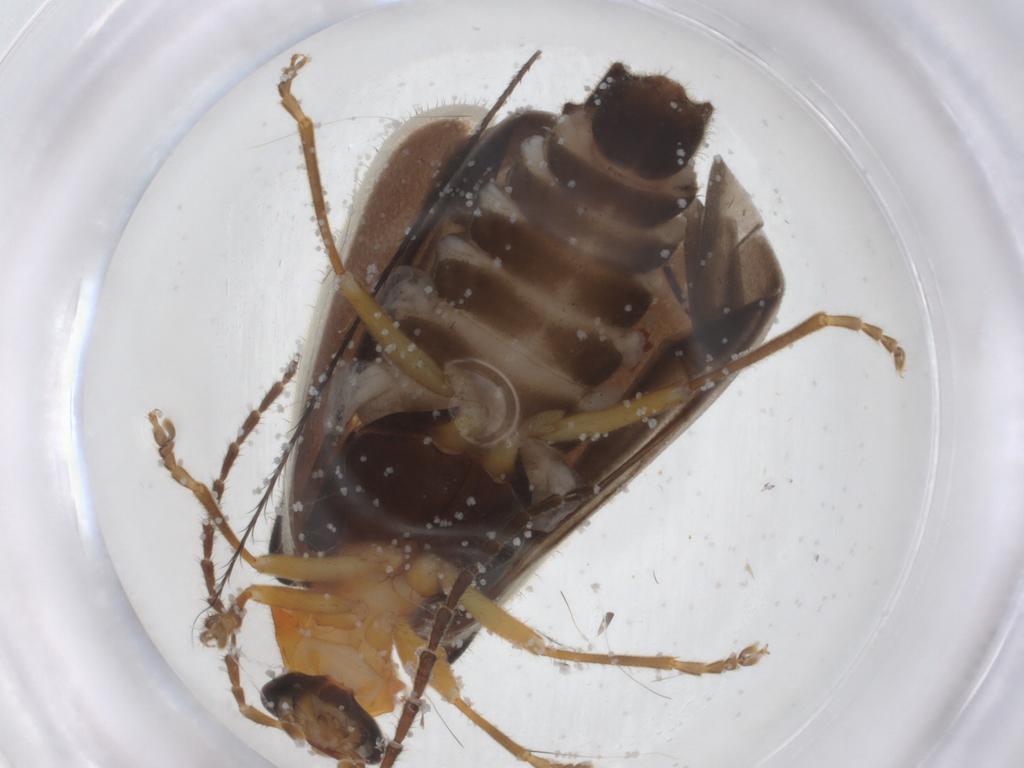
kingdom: Animalia
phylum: Arthropoda
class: Insecta
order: Coleoptera
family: Cantharidae
